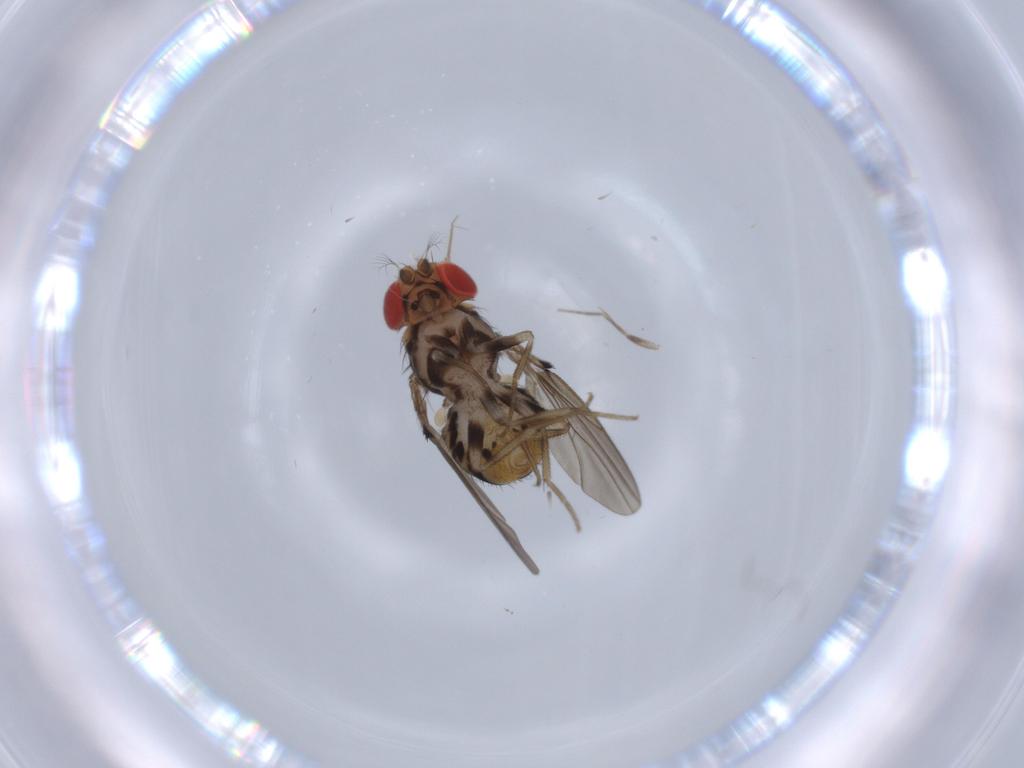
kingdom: Animalia
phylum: Arthropoda
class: Insecta
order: Diptera
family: Drosophilidae
